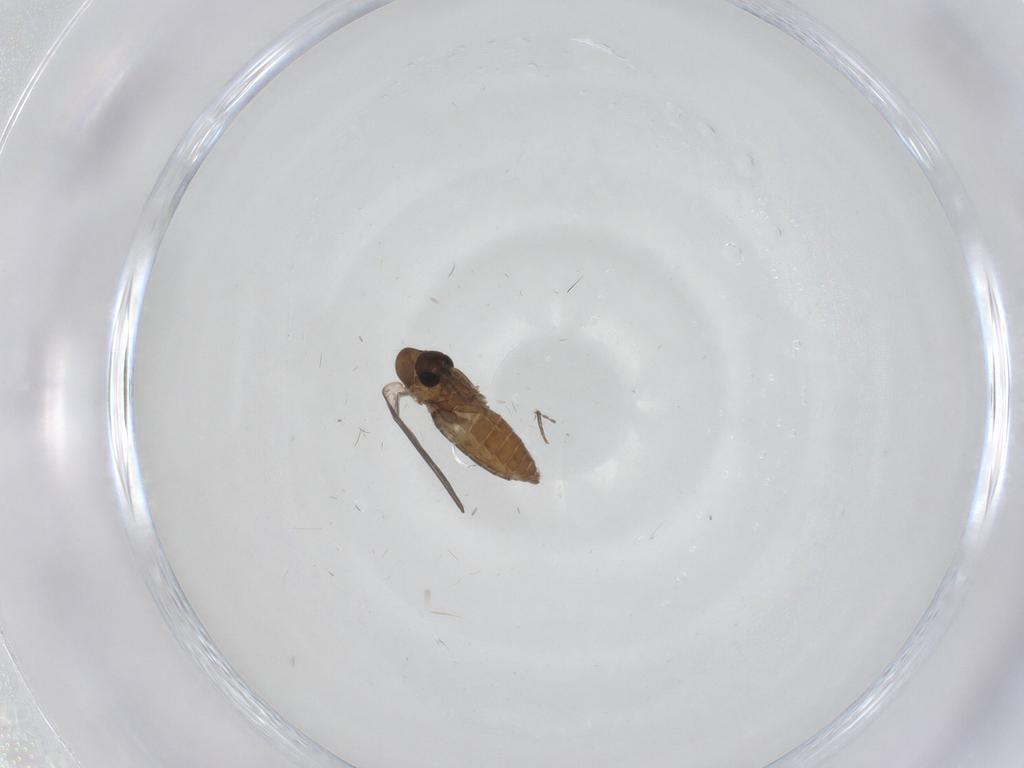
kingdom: Animalia
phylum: Arthropoda
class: Insecta
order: Diptera
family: Psychodidae
